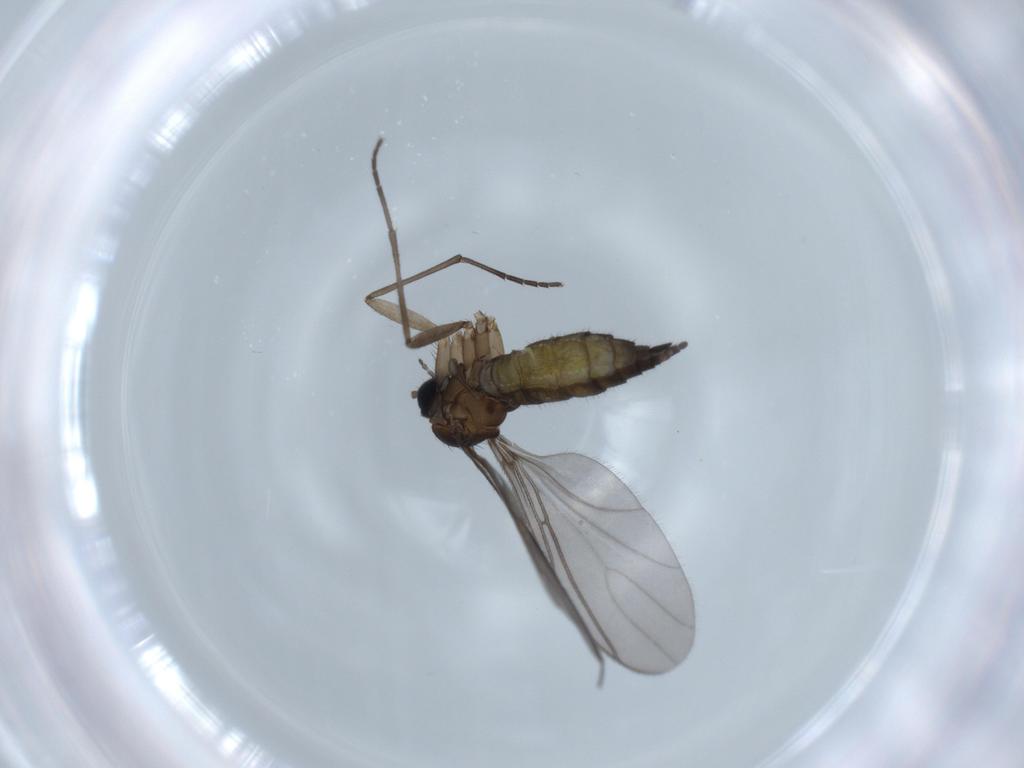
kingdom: Animalia
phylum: Arthropoda
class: Insecta
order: Diptera
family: Sciaridae
